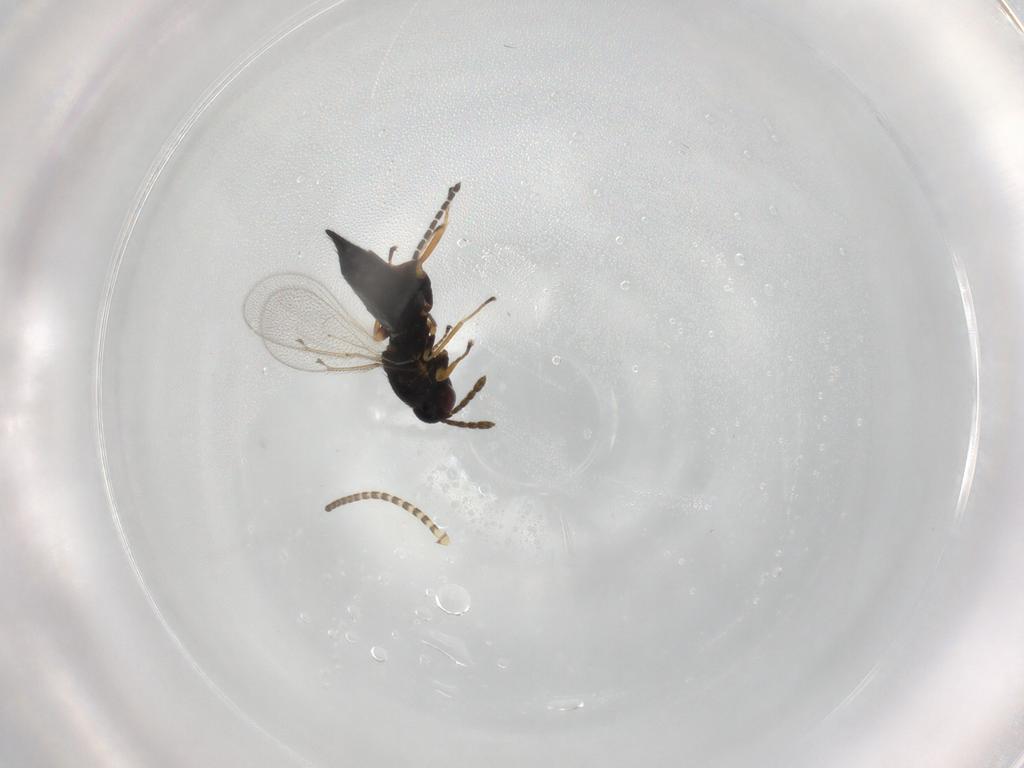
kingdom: Animalia
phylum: Arthropoda
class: Insecta
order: Hymenoptera
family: Eulophidae
